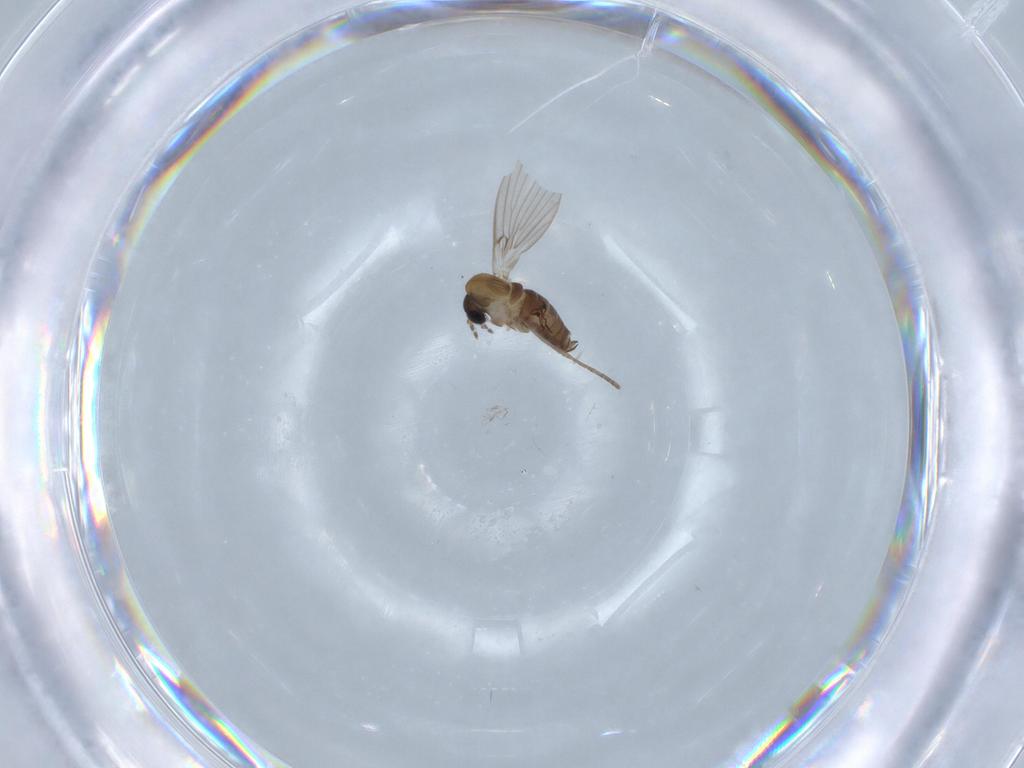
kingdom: Animalia
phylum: Arthropoda
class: Insecta
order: Diptera
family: Psychodidae
